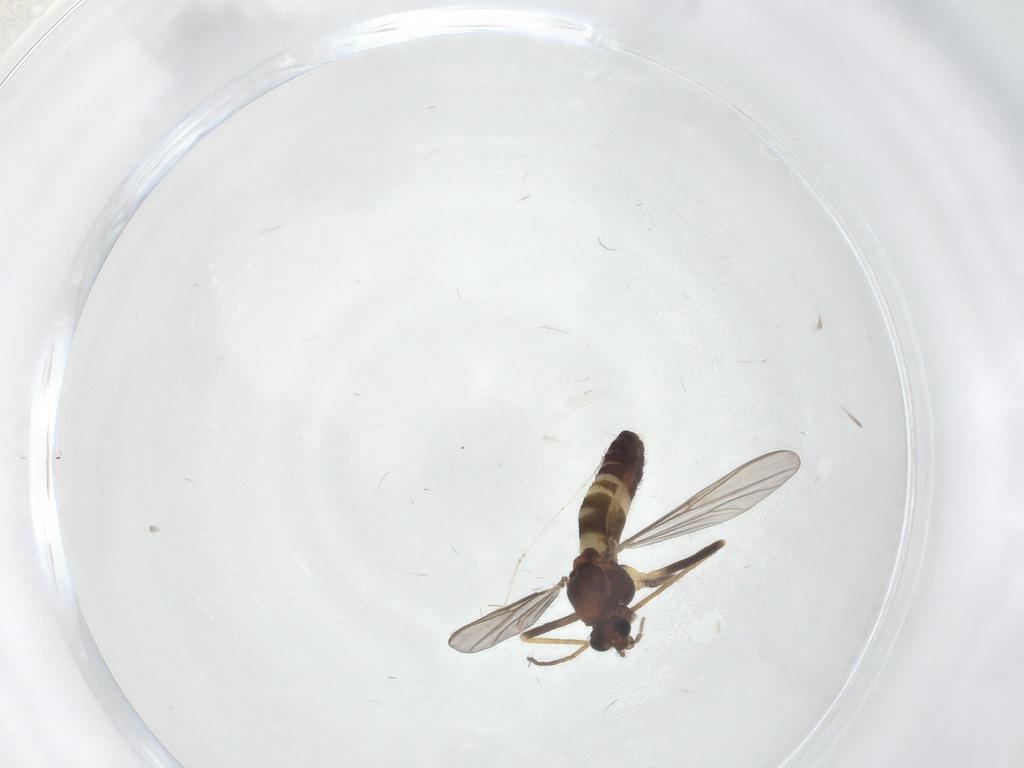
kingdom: Animalia
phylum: Arthropoda
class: Insecta
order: Diptera
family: Chironomidae
